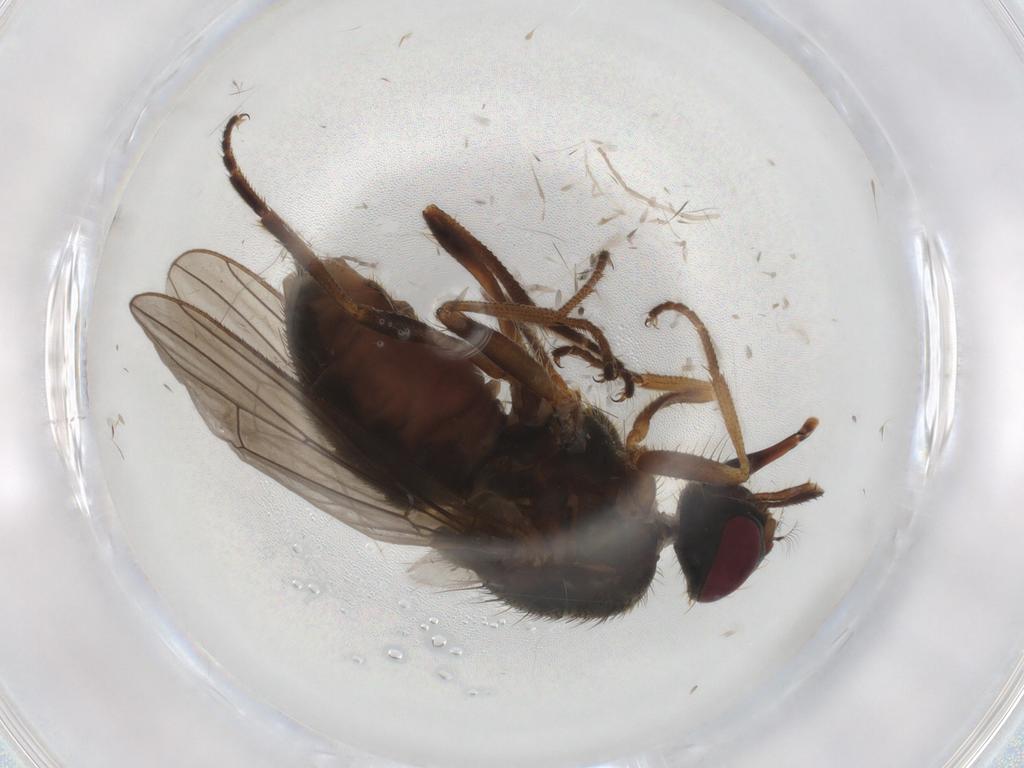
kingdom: Animalia
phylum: Arthropoda
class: Insecta
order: Diptera
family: Psychodidae
